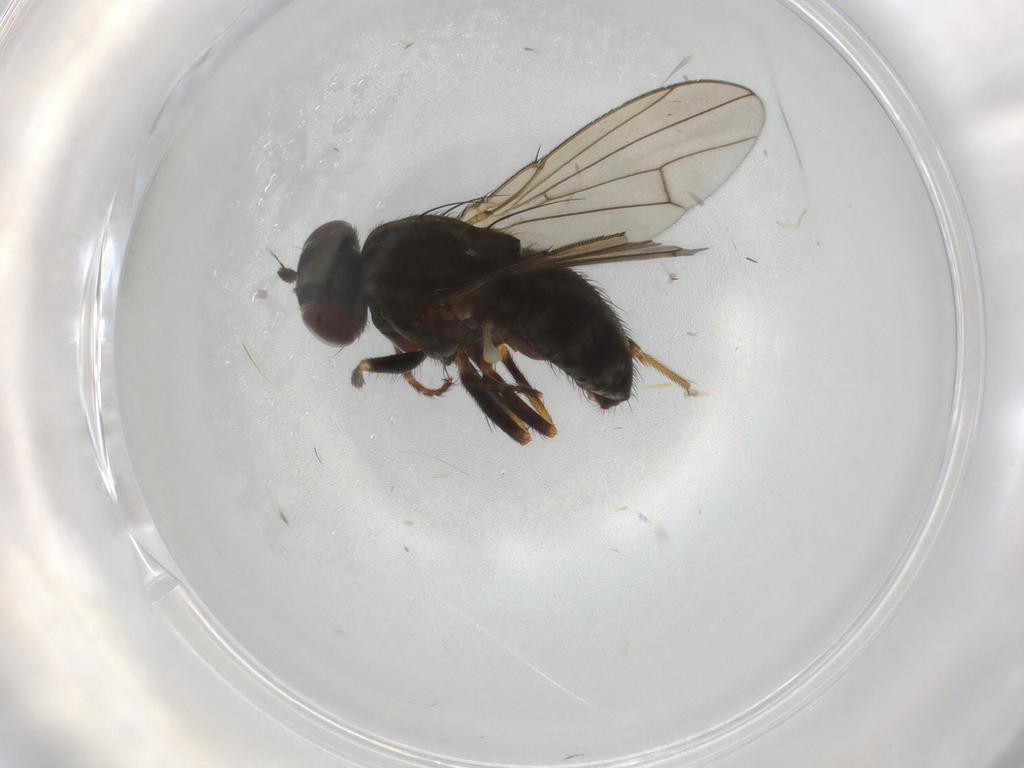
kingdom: Animalia
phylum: Arthropoda
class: Insecta
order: Diptera
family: Ephydridae
